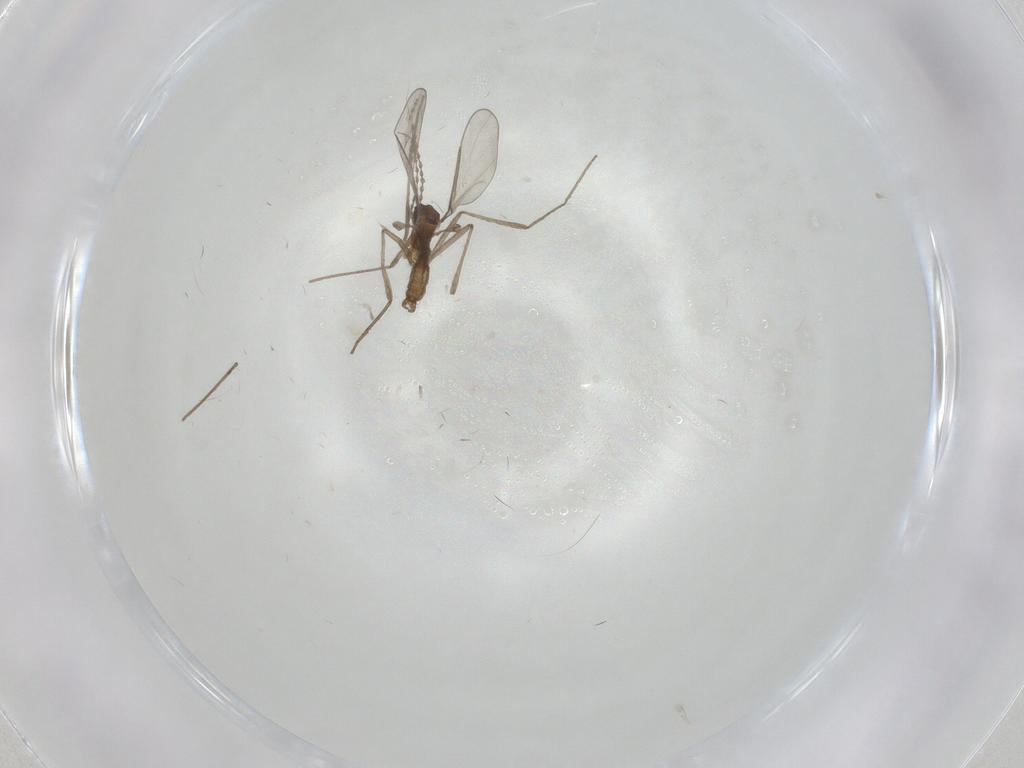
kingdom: Animalia
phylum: Arthropoda
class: Insecta
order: Diptera
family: Cecidomyiidae
